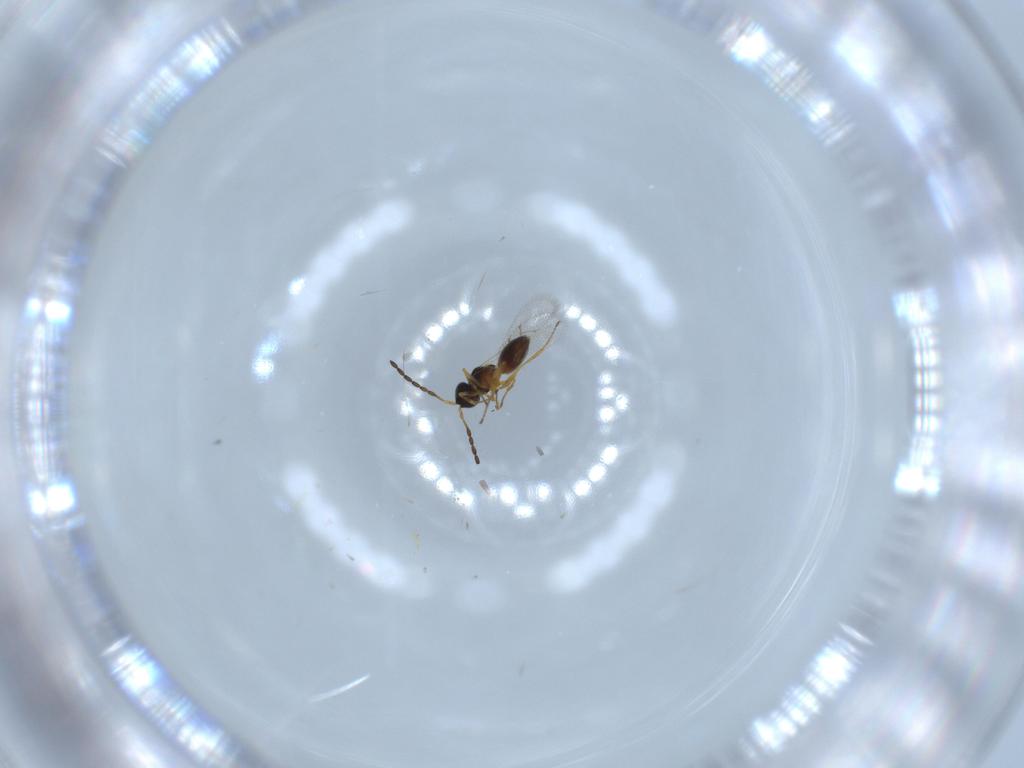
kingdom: Animalia
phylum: Arthropoda
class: Insecta
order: Hymenoptera
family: Figitidae
